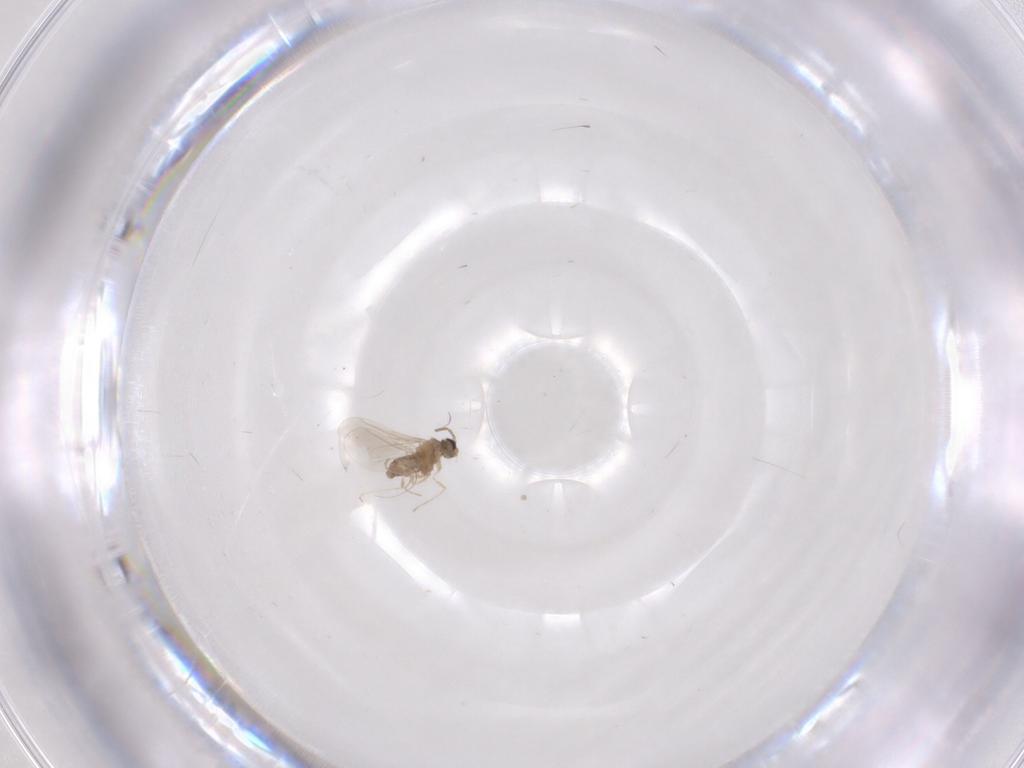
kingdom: Animalia
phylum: Arthropoda
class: Insecta
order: Diptera
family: Cecidomyiidae
